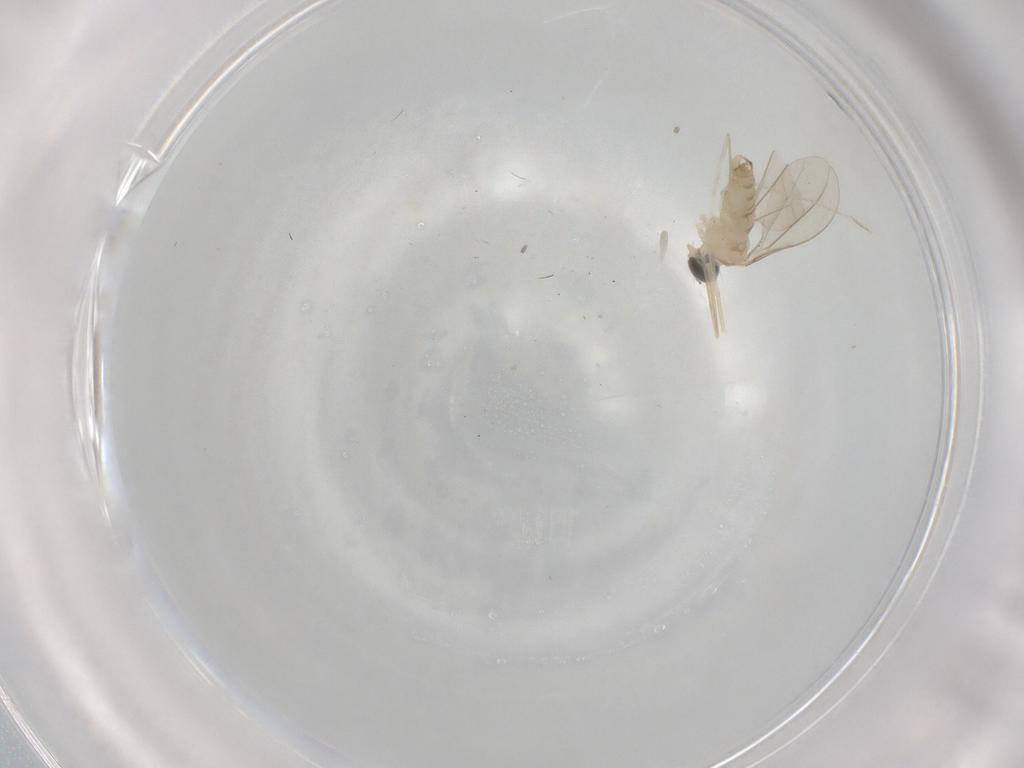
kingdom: Animalia
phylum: Arthropoda
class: Insecta
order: Diptera
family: Cecidomyiidae
